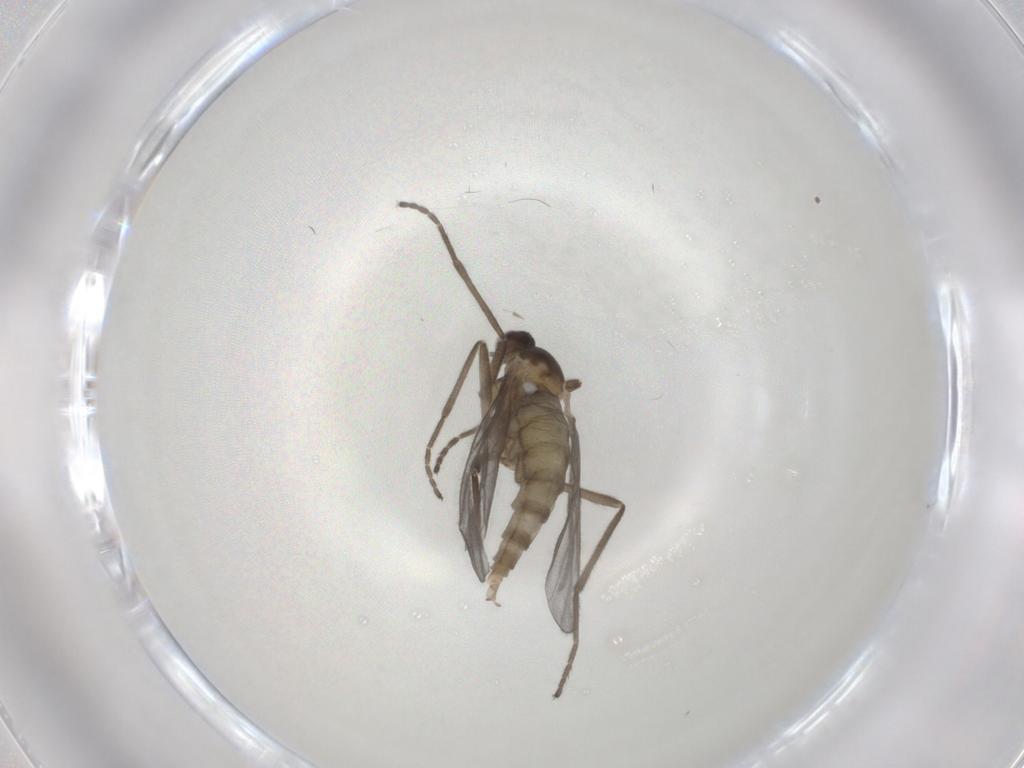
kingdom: Animalia
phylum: Arthropoda
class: Insecta
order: Diptera
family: Cecidomyiidae
